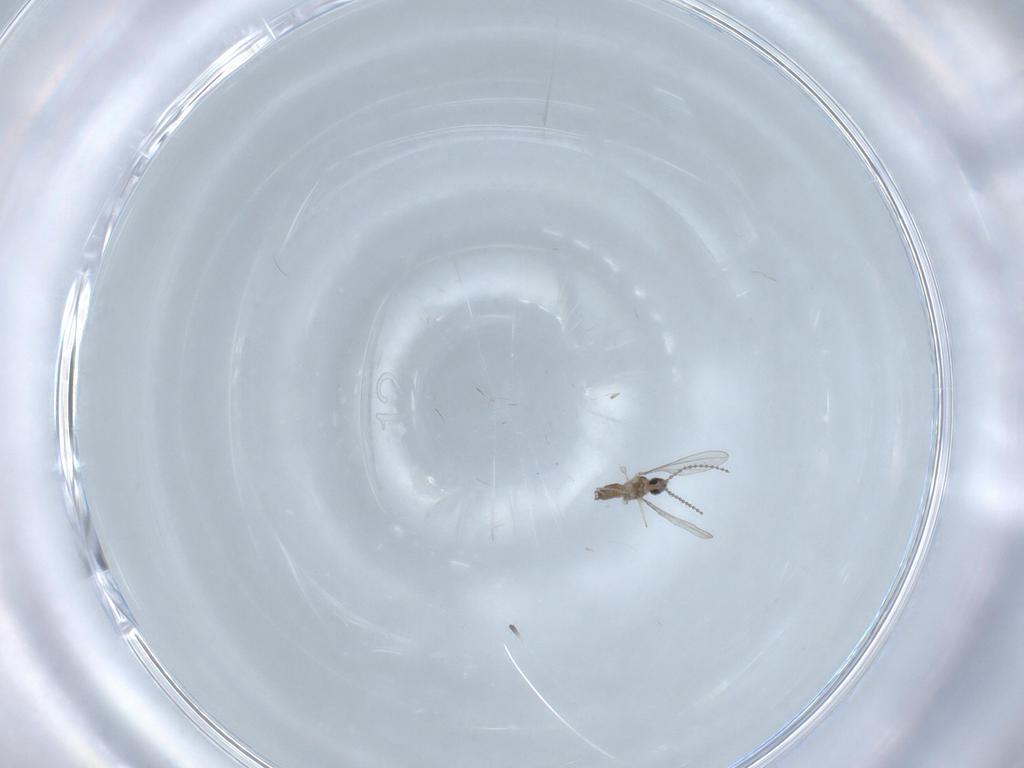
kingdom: Animalia
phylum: Arthropoda
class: Insecta
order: Diptera
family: Cecidomyiidae
